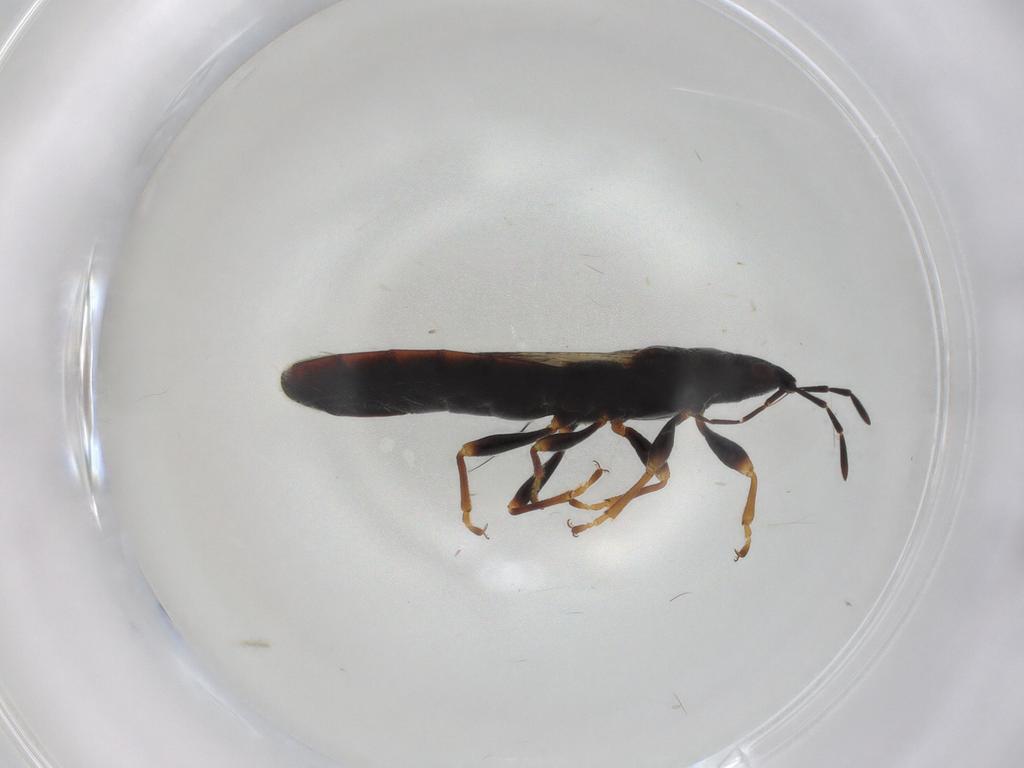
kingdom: Animalia
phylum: Arthropoda
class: Insecta
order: Hemiptera
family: Blissidae
